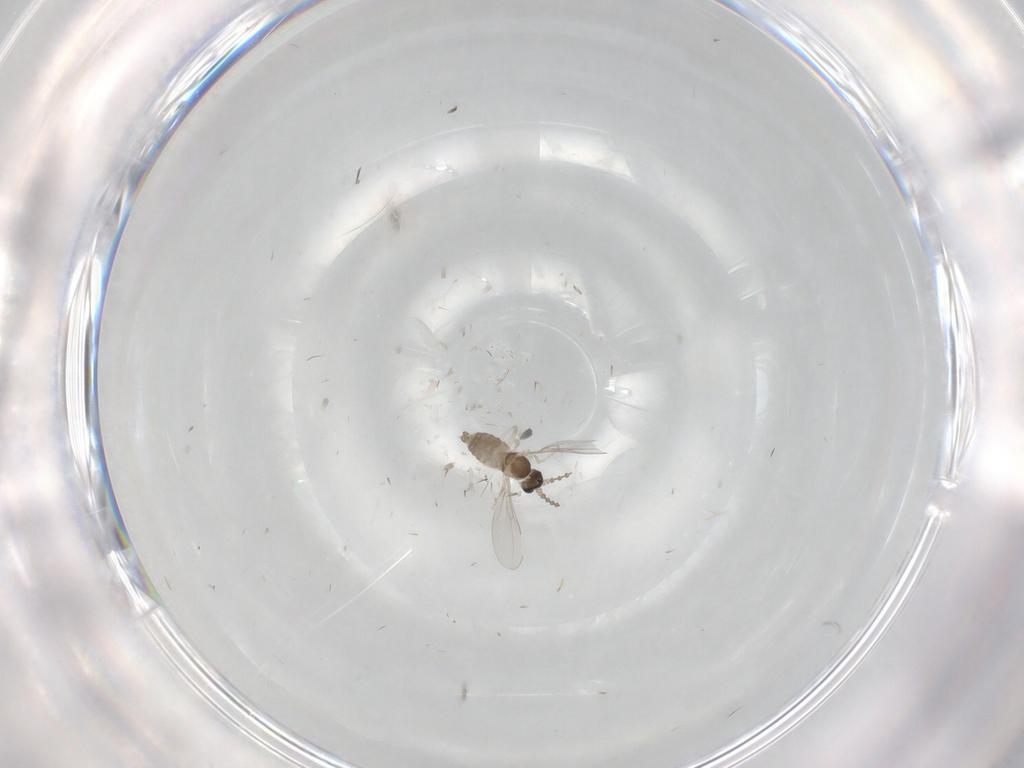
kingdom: Animalia
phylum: Arthropoda
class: Insecta
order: Diptera
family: Cecidomyiidae
